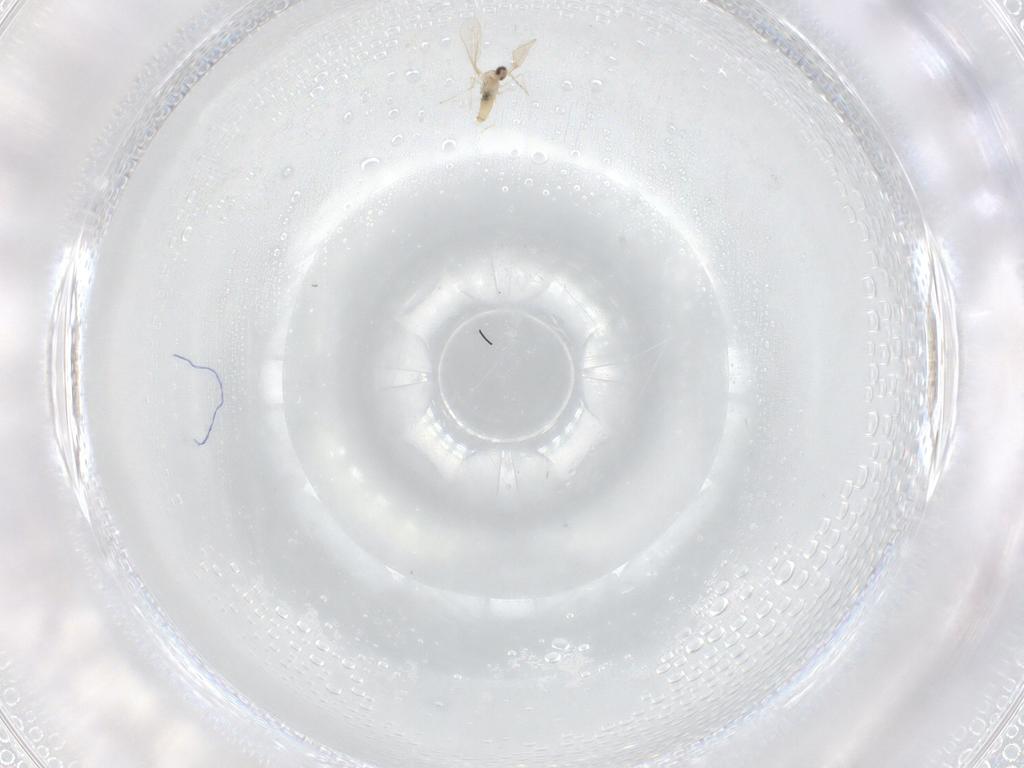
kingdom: Animalia
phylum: Arthropoda
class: Insecta
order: Diptera
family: Mycetophilidae
